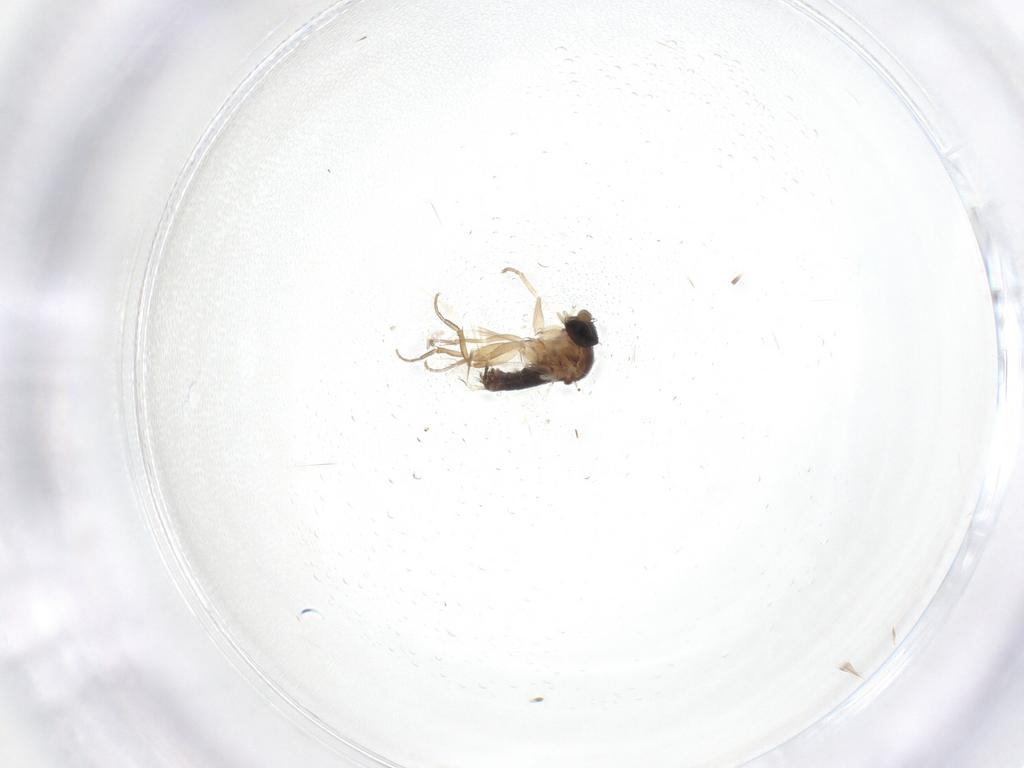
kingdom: Animalia
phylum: Arthropoda
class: Insecta
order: Diptera
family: Phoridae
